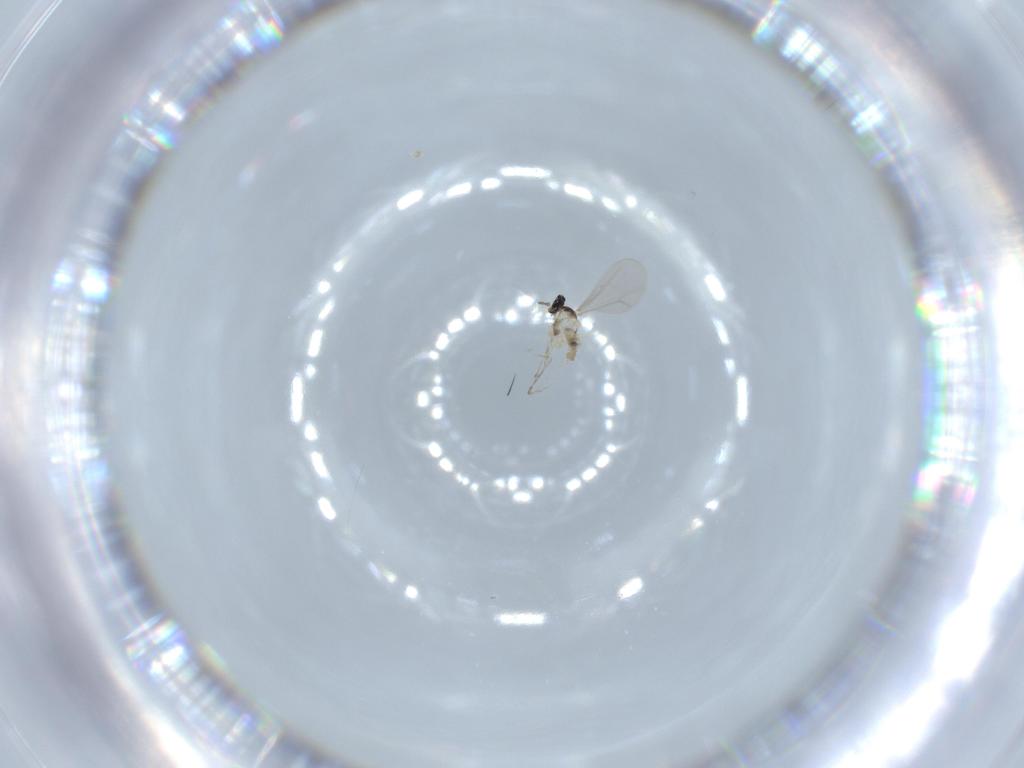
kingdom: Animalia
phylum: Arthropoda
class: Insecta
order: Diptera
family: Cecidomyiidae
